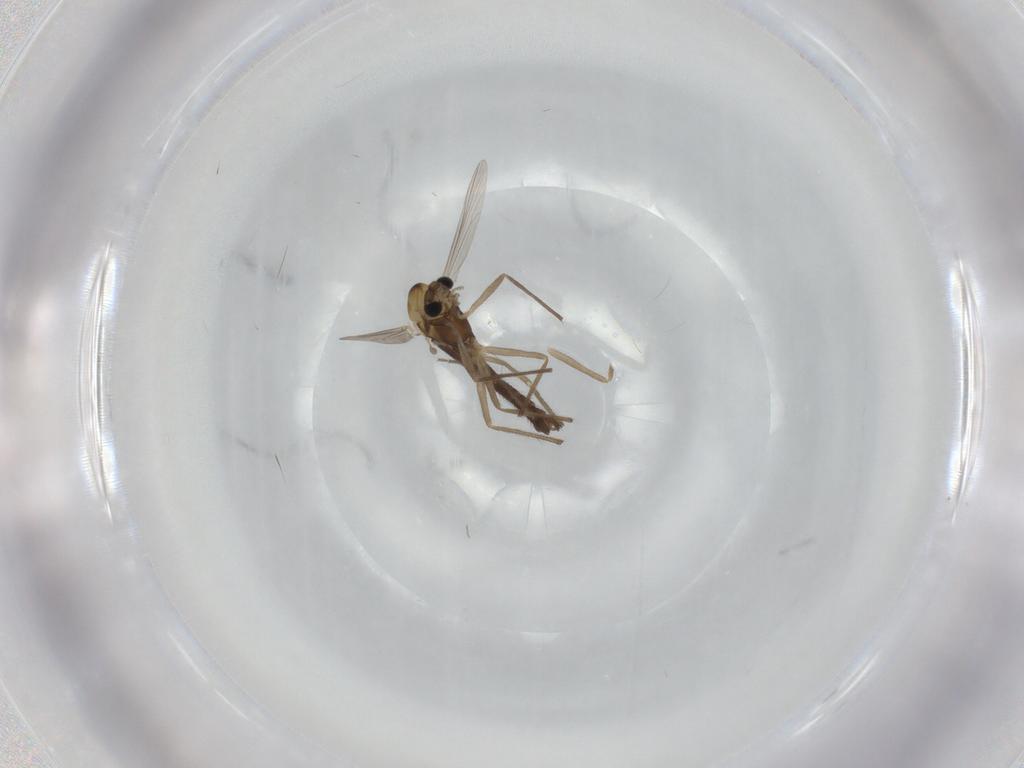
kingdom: Animalia
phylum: Arthropoda
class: Insecta
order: Diptera
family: Chironomidae
